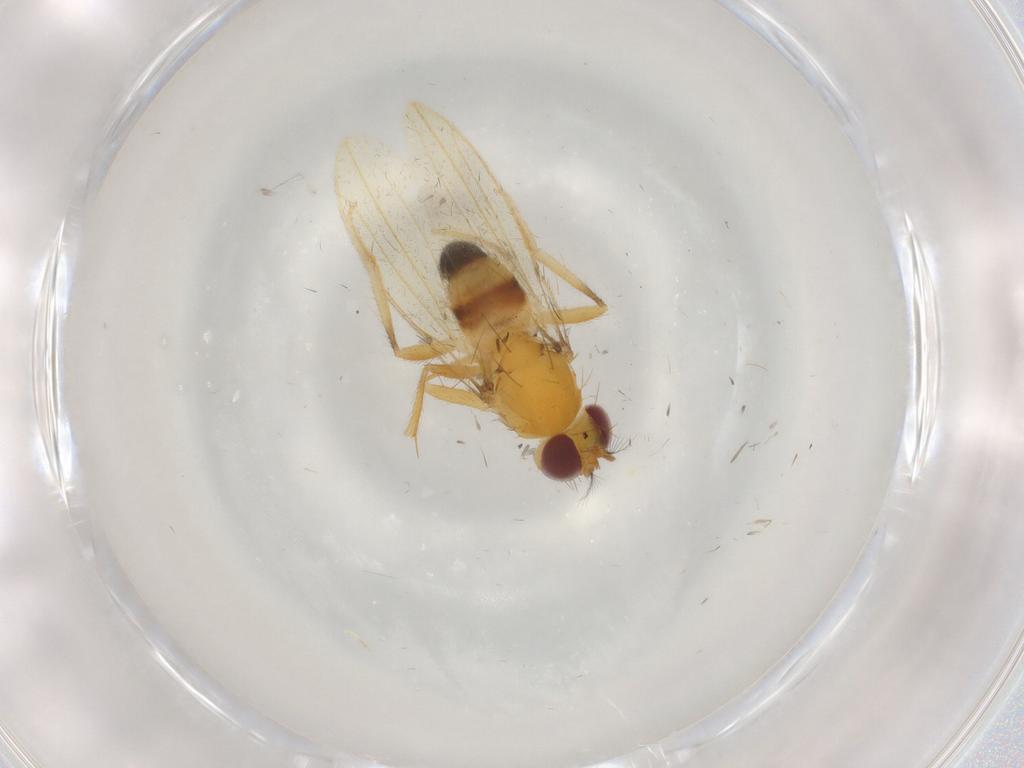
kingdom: Animalia
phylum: Arthropoda
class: Insecta
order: Diptera
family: Periscelididae
